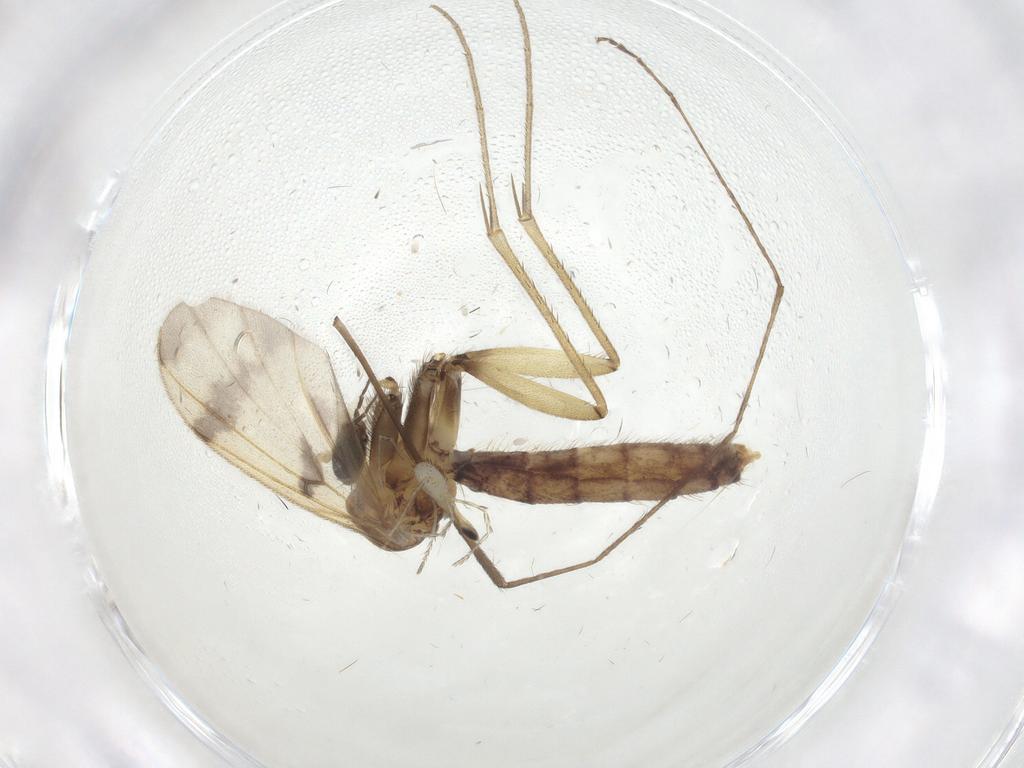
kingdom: Animalia
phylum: Arthropoda
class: Insecta
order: Diptera
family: Mycetophilidae
